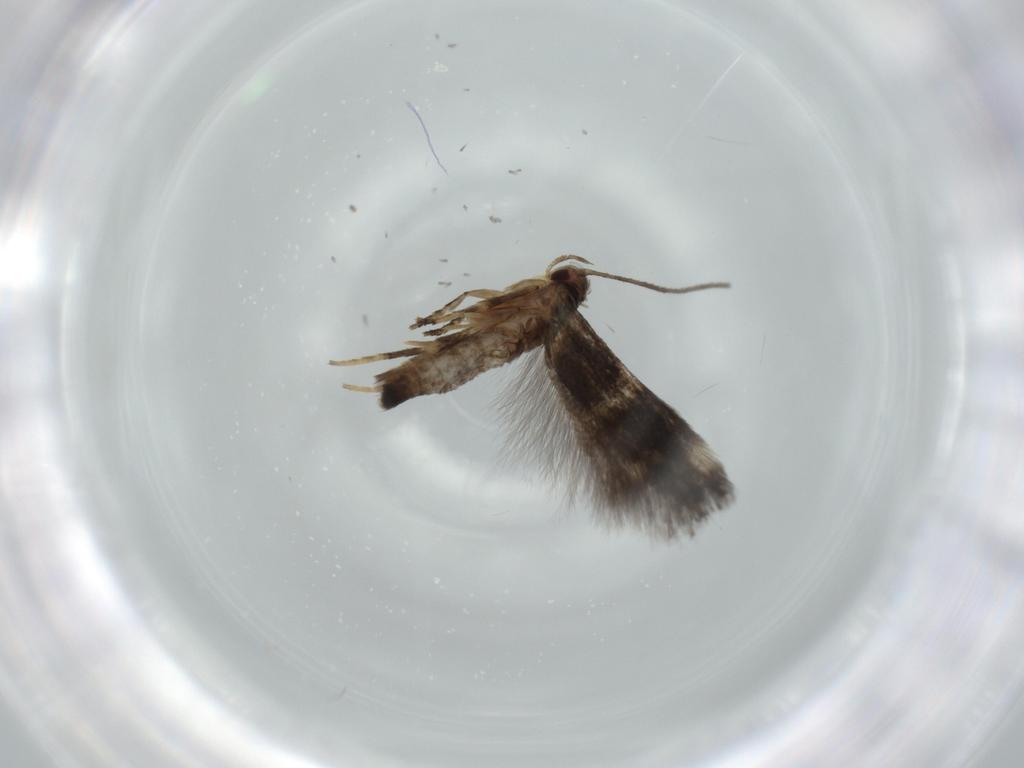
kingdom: Animalia
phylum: Arthropoda
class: Insecta
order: Lepidoptera
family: Cosmopterigidae
